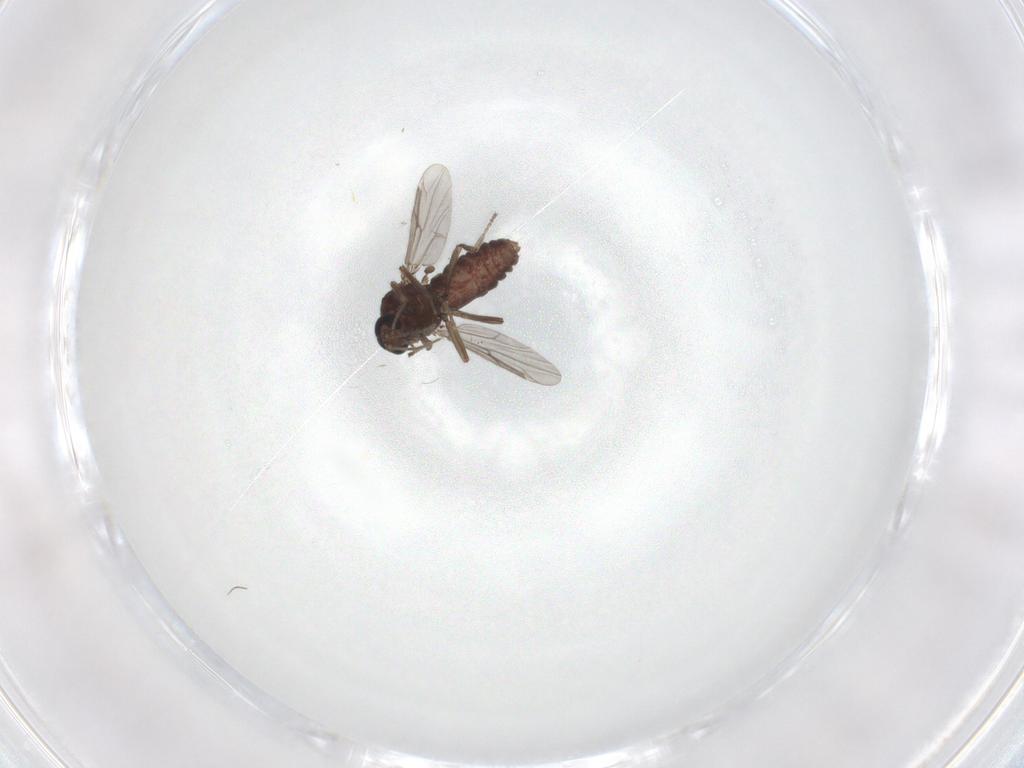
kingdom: Animalia
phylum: Arthropoda
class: Insecta
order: Diptera
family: Ceratopogonidae
